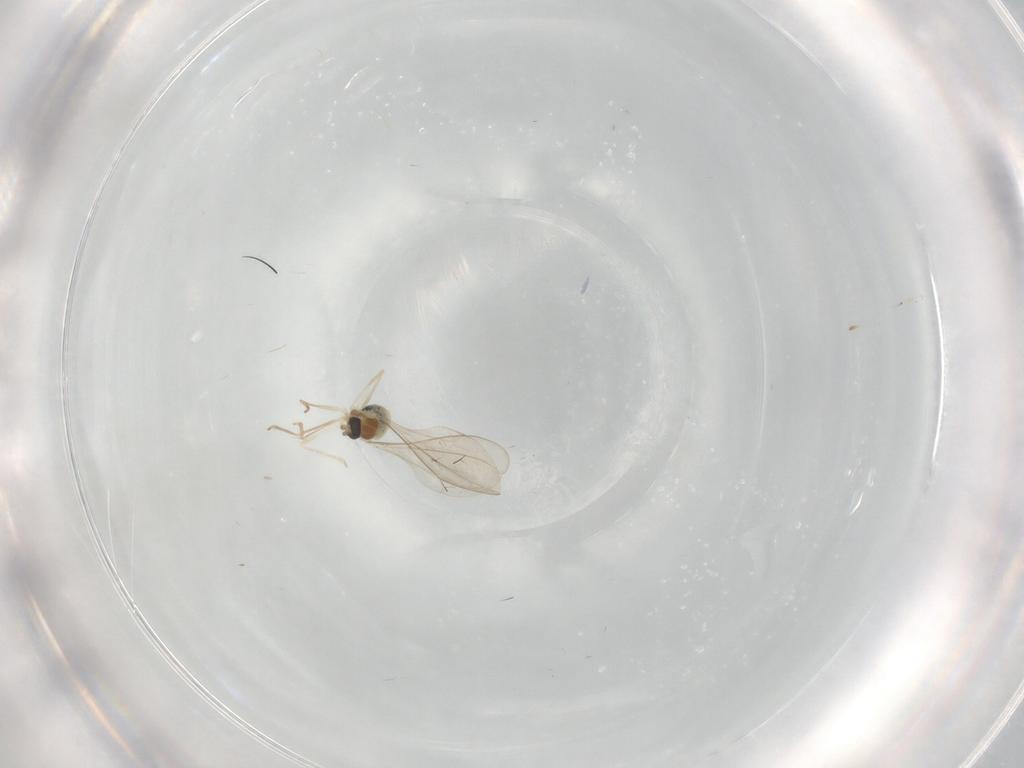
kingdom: Animalia
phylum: Arthropoda
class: Insecta
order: Diptera
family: Cecidomyiidae
